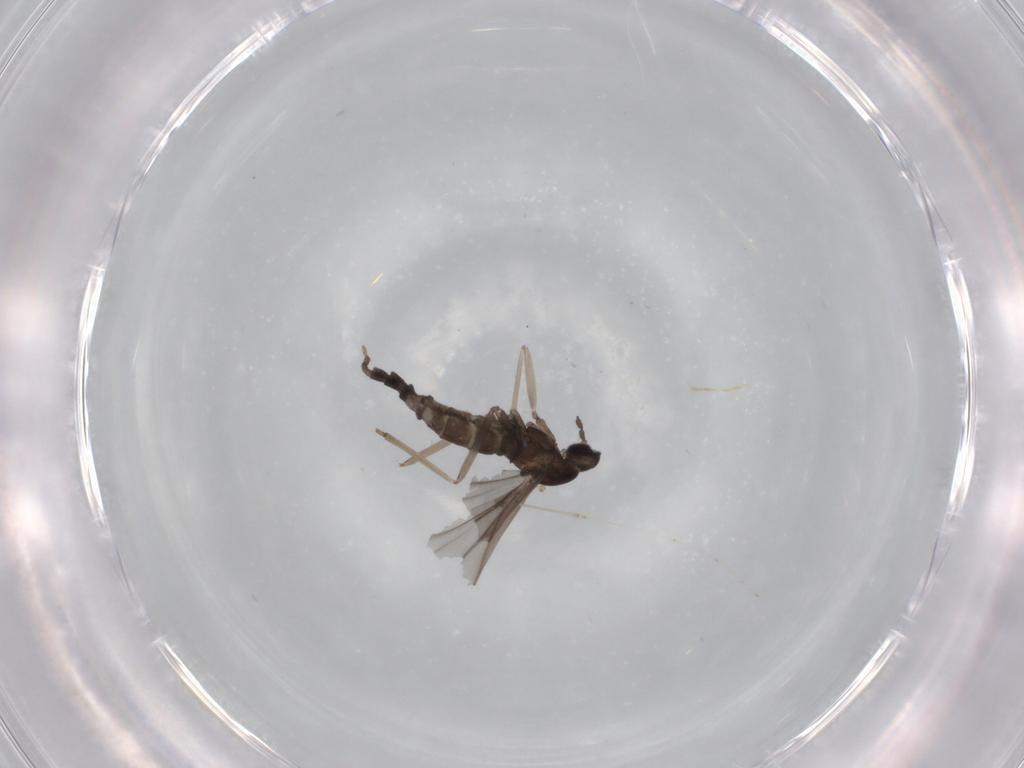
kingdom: Animalia
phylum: Arthropoda
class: Insecta
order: Diptera
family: Cecidomyiidae
